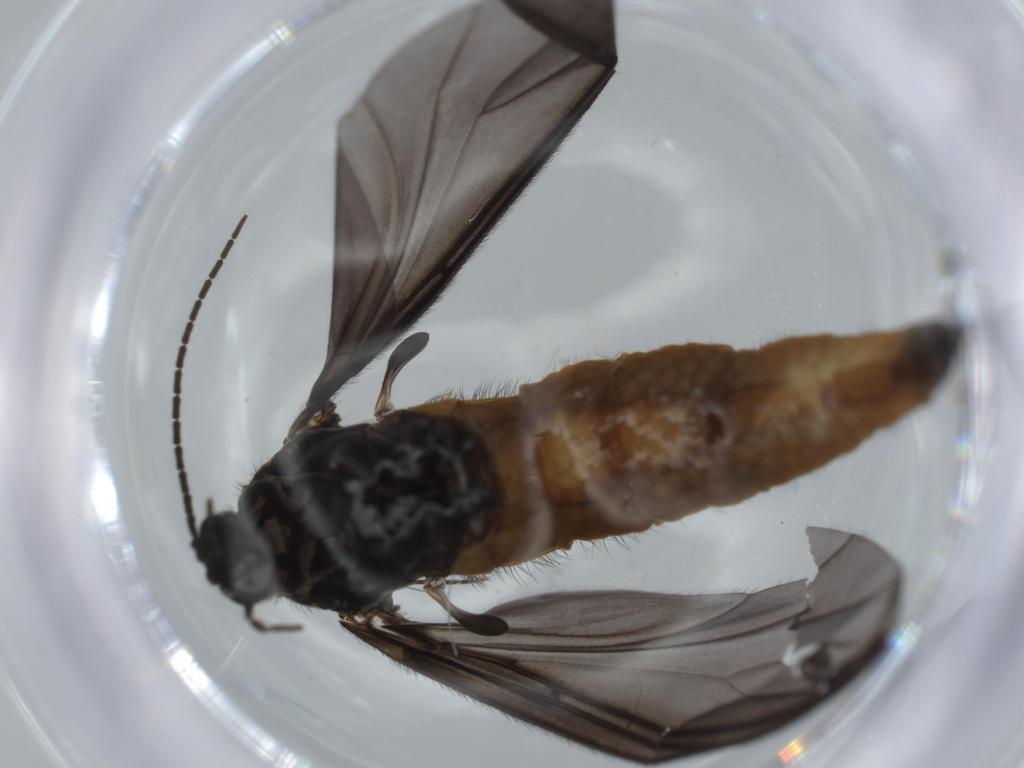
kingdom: Animalia
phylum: Arthropoda
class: Insecta
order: Diptera
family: Cecidomyiidae
